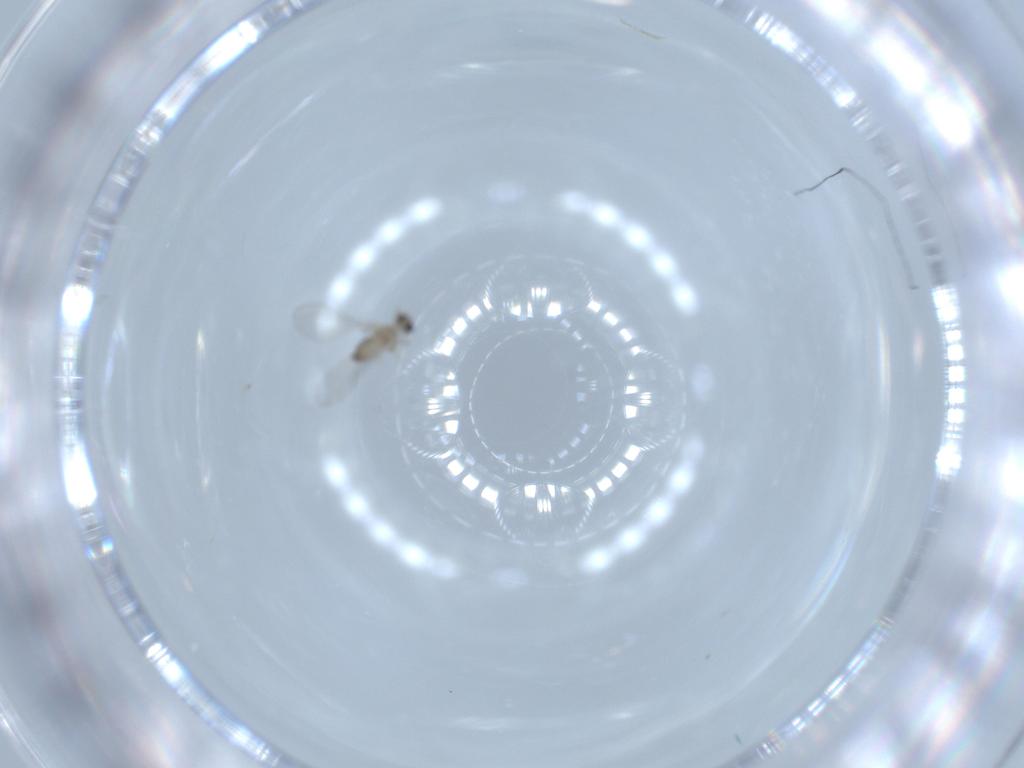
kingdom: Animalia
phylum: Arthropoda
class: Insecta
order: Diptera
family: Cecidomyiidae
